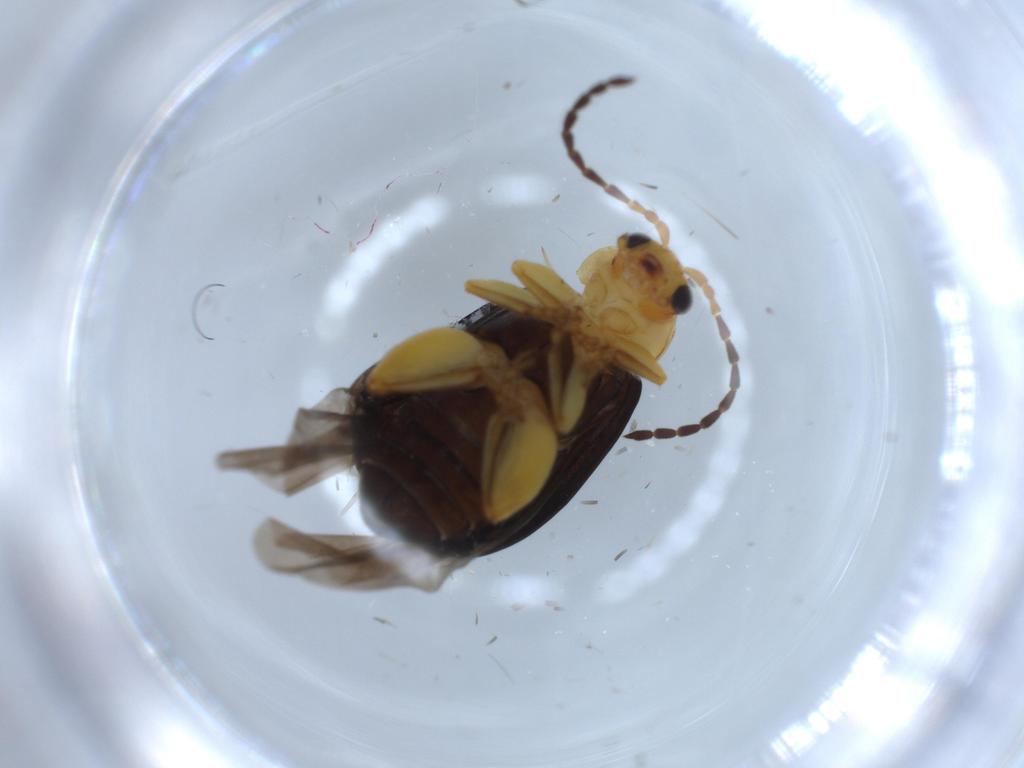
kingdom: Animalia
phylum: Arthropoda
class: Insecta
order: Coleoptera
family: Chrysomelidae
